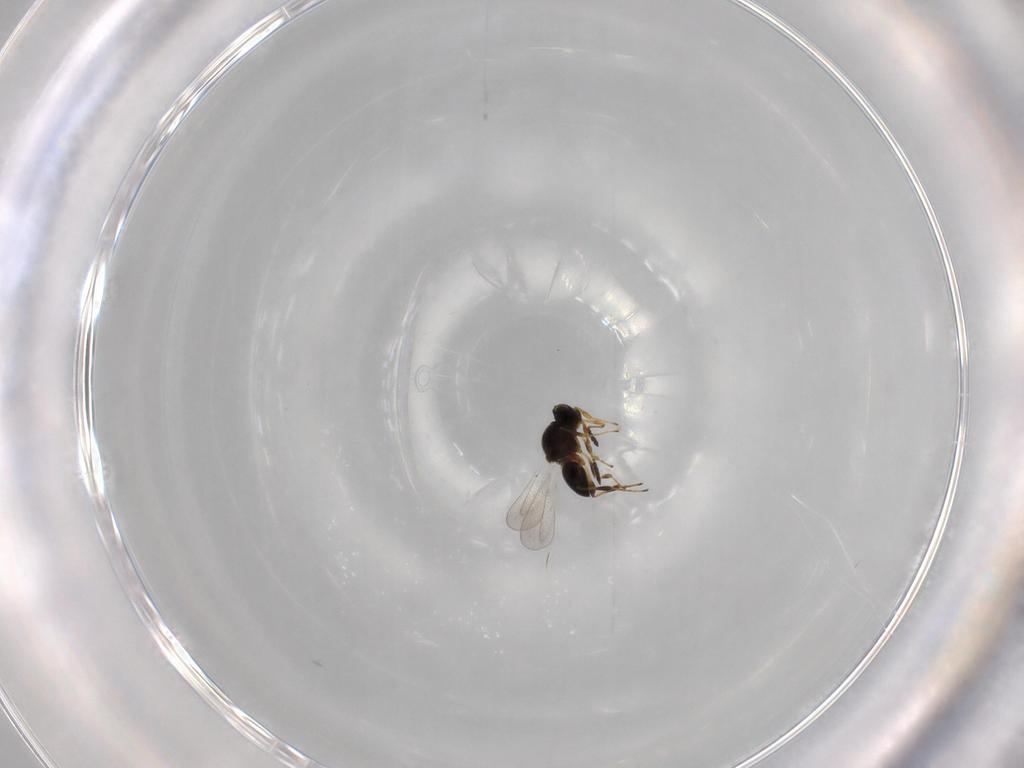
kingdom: Animalia
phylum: Arthropoda
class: Insecta
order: Hymenoptera
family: Platygastridae
